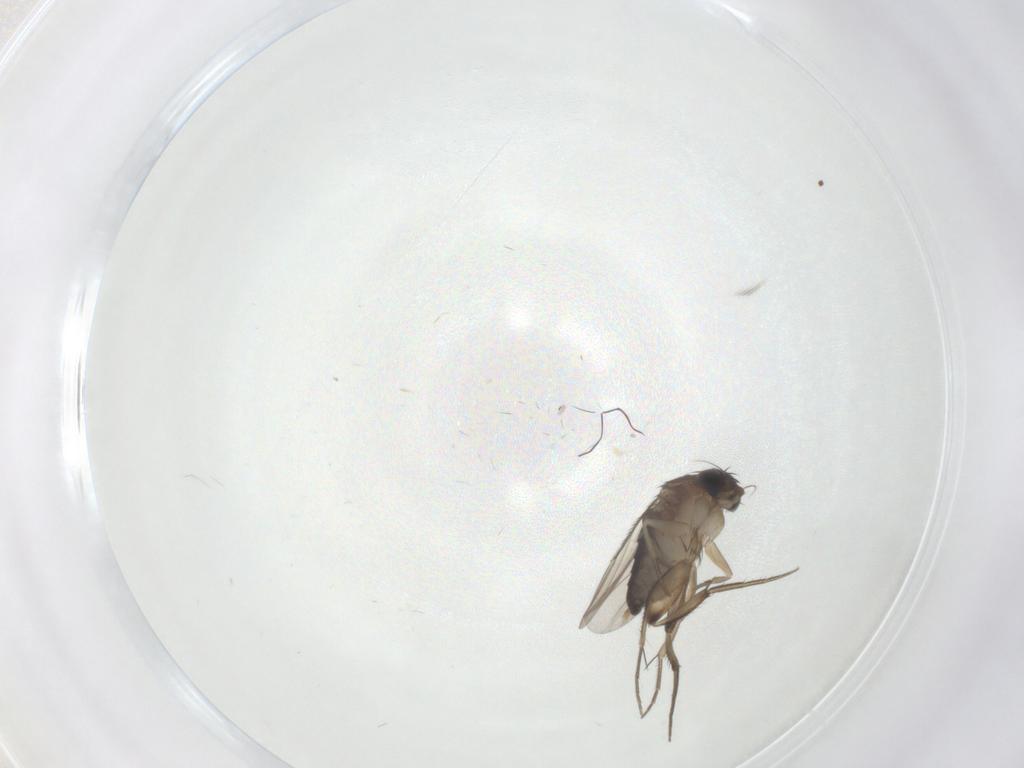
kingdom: Animalia
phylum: Arthropoda
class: Insecta
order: Diptera
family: Phoridae
